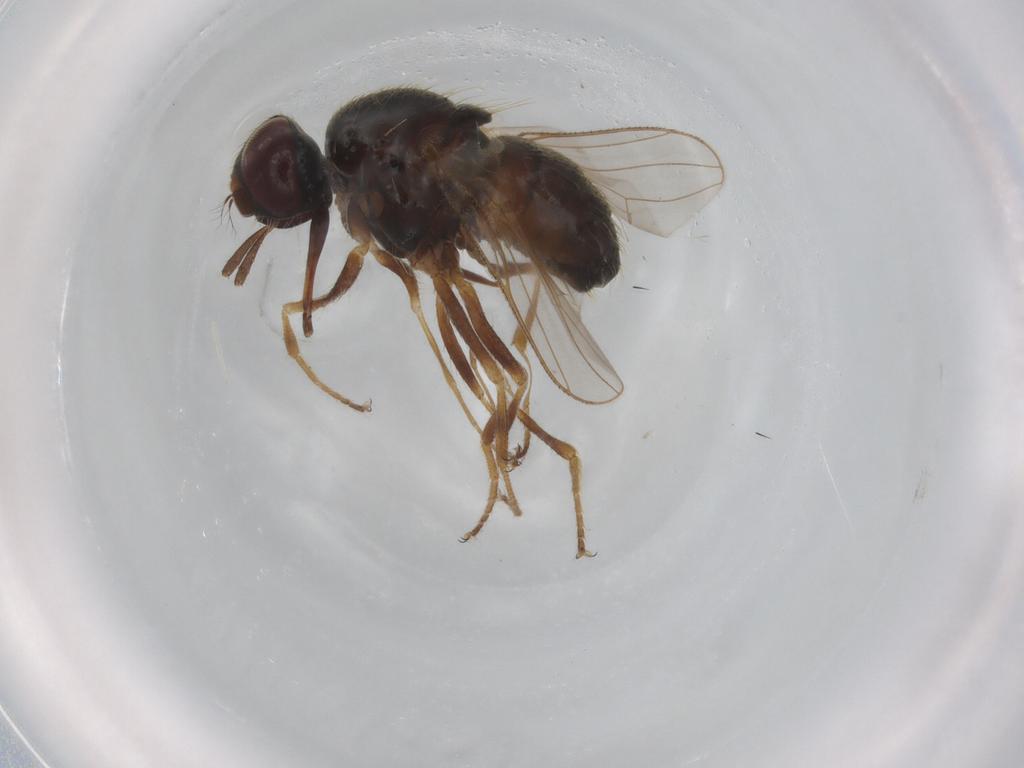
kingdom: Animalia
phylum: Arthropoda
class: Insecta
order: Diptera
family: Muscidae
